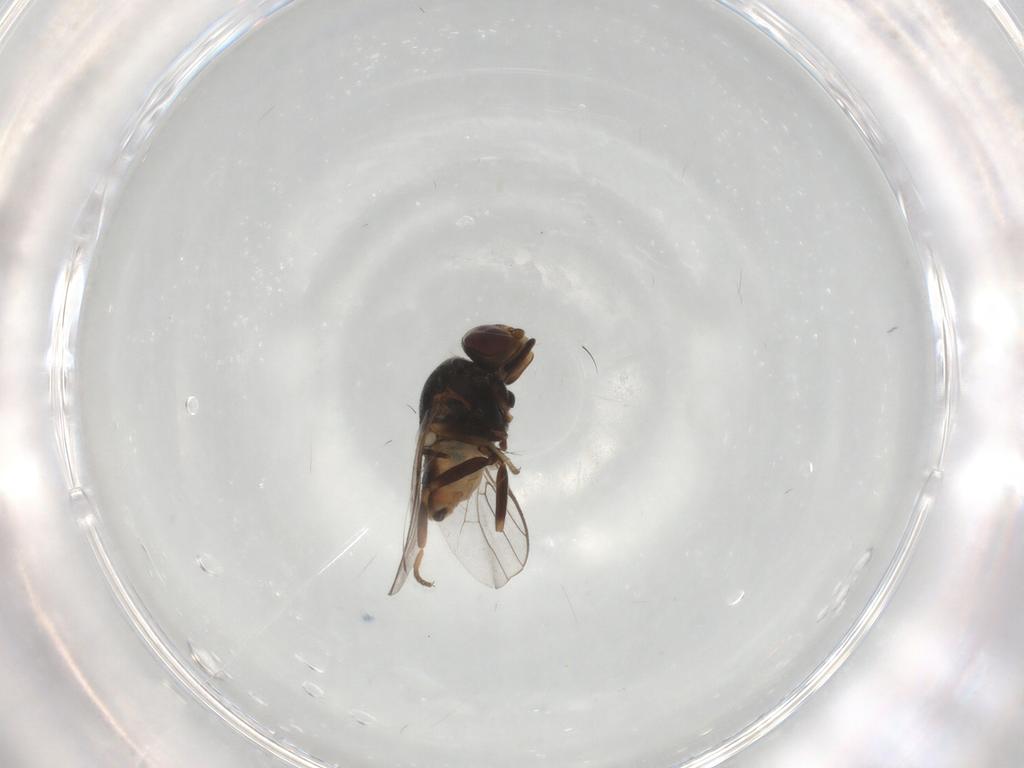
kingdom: Animalia
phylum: Arthropoda
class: Insecta
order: Diptera
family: Chloropidae
